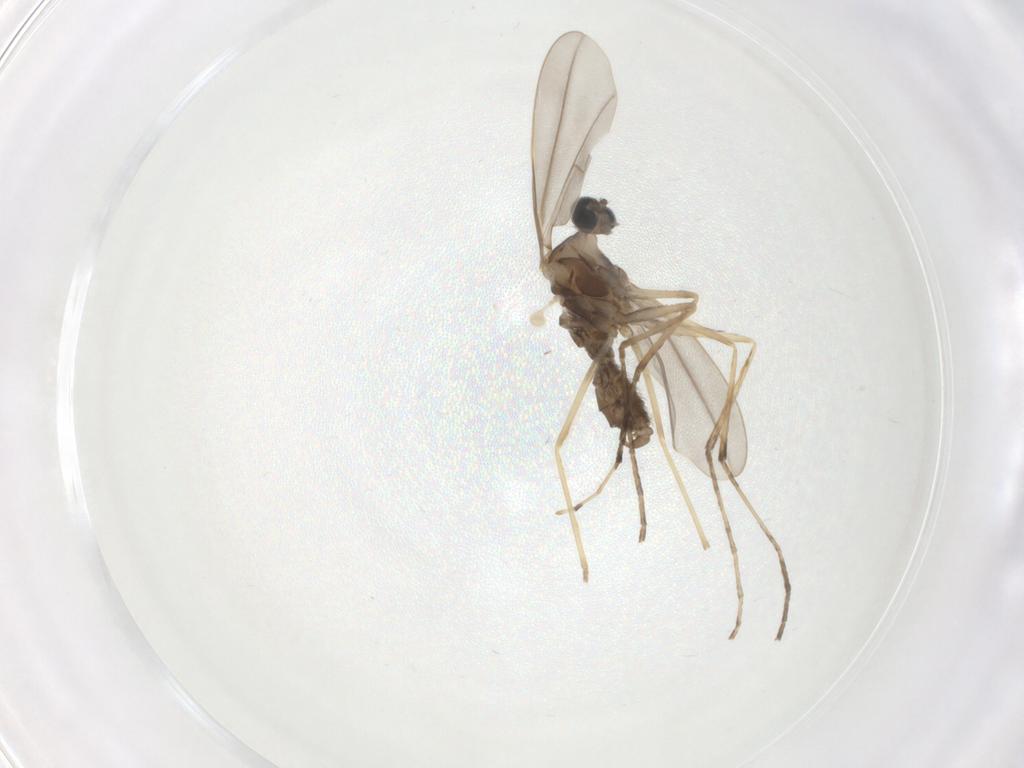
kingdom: Animalia
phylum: Arthropoda
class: Insecta
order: Diptera
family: Cecidomyiidae
